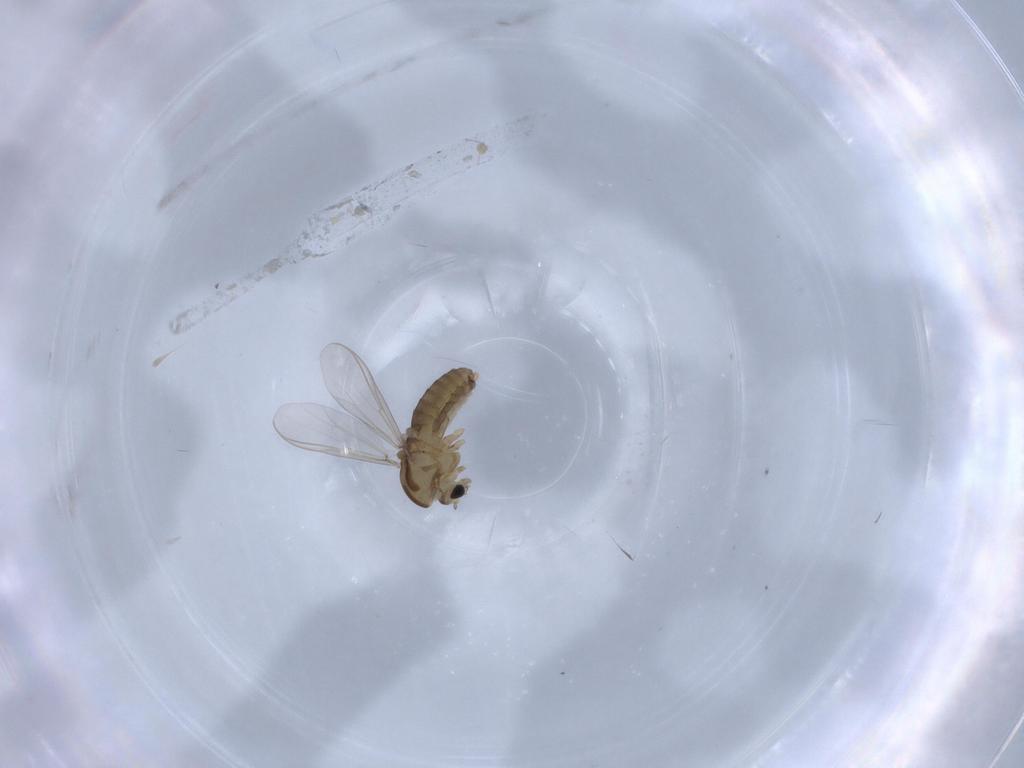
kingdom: Animalia
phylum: Arthropoda
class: Insecta
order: Diptera
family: Chironomidae
